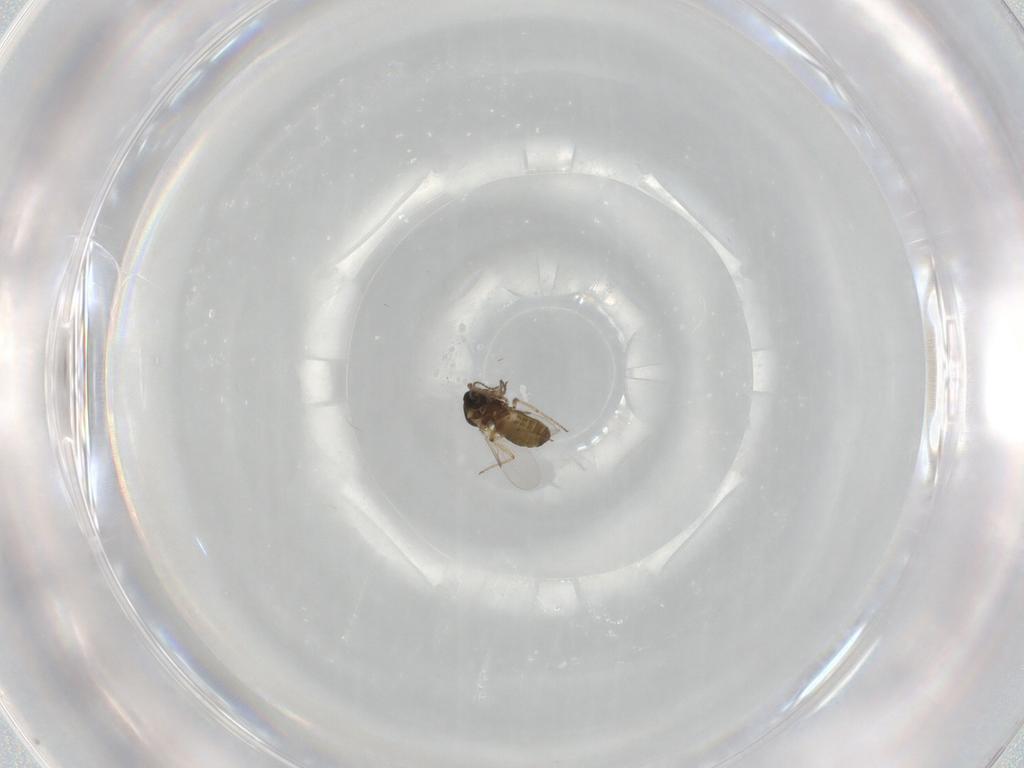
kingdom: Animalia
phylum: Arthropoda
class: Insecta
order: Diptera
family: Ceratopogonidae
